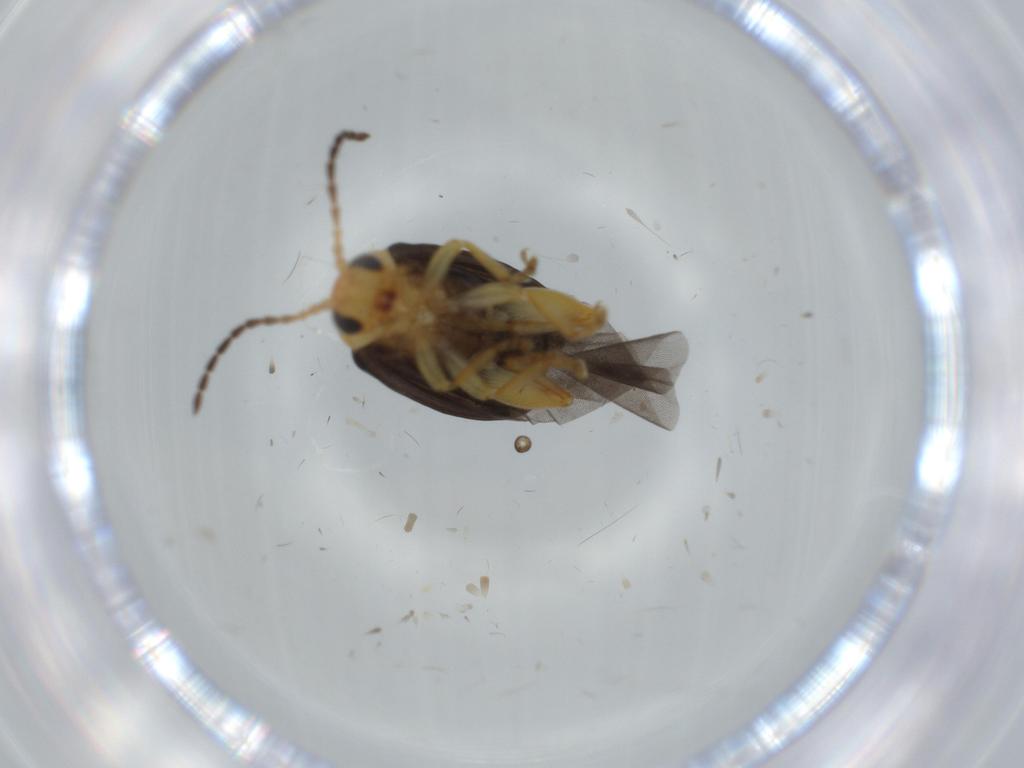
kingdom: Animalia
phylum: Arthropoda
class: Insecta
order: Coleoptera
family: Chrysomelidae
